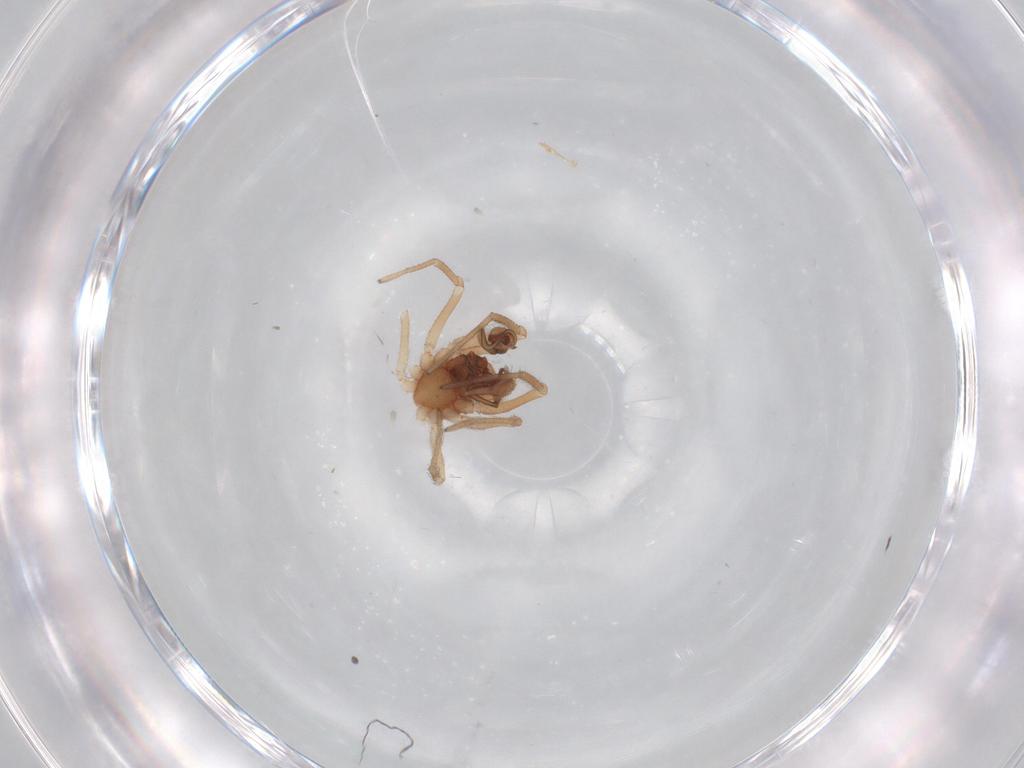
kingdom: Animalia
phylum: Arthropoda
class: Arachnida
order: Araneae
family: Dictynidae
